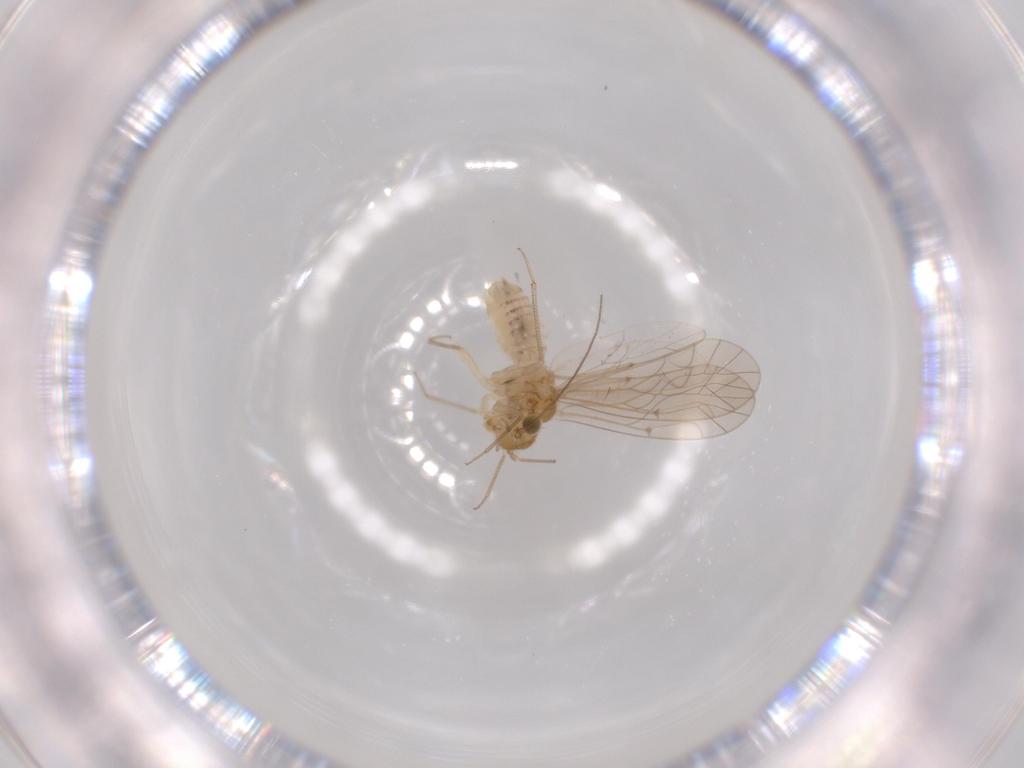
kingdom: Animalia
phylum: Arthropoda
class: Insecta
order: Psocodea
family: Lachesillidae
